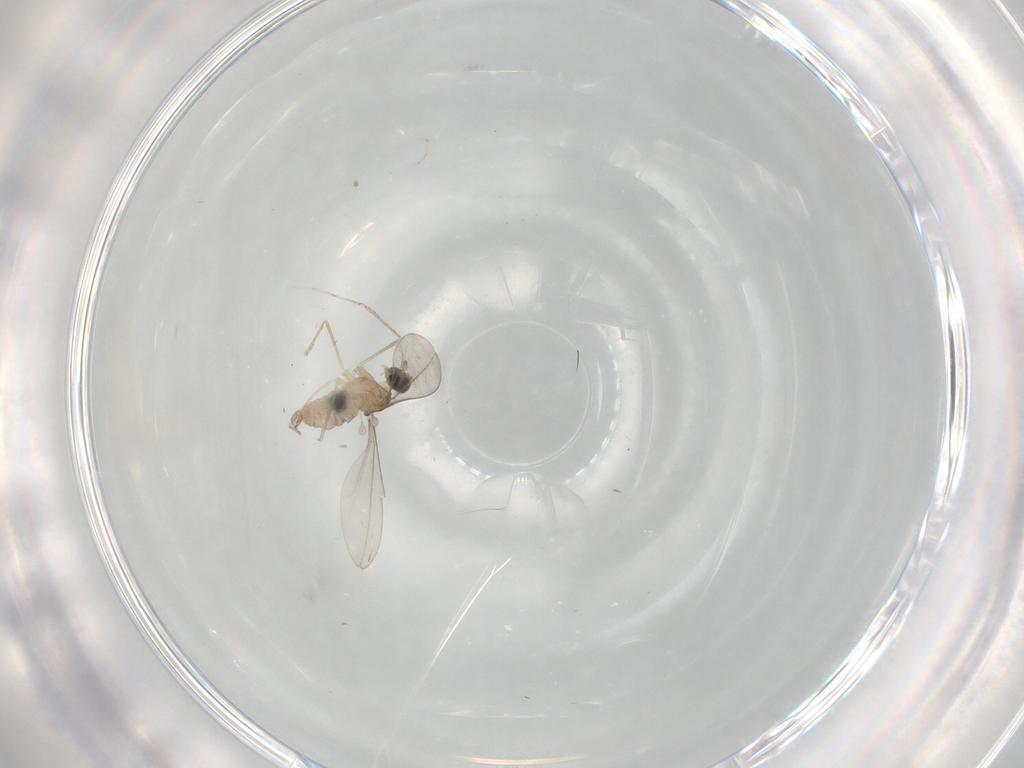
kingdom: Animalia
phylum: Arthropoda
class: Insecta
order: Diptera
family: Cecidomyiidae
